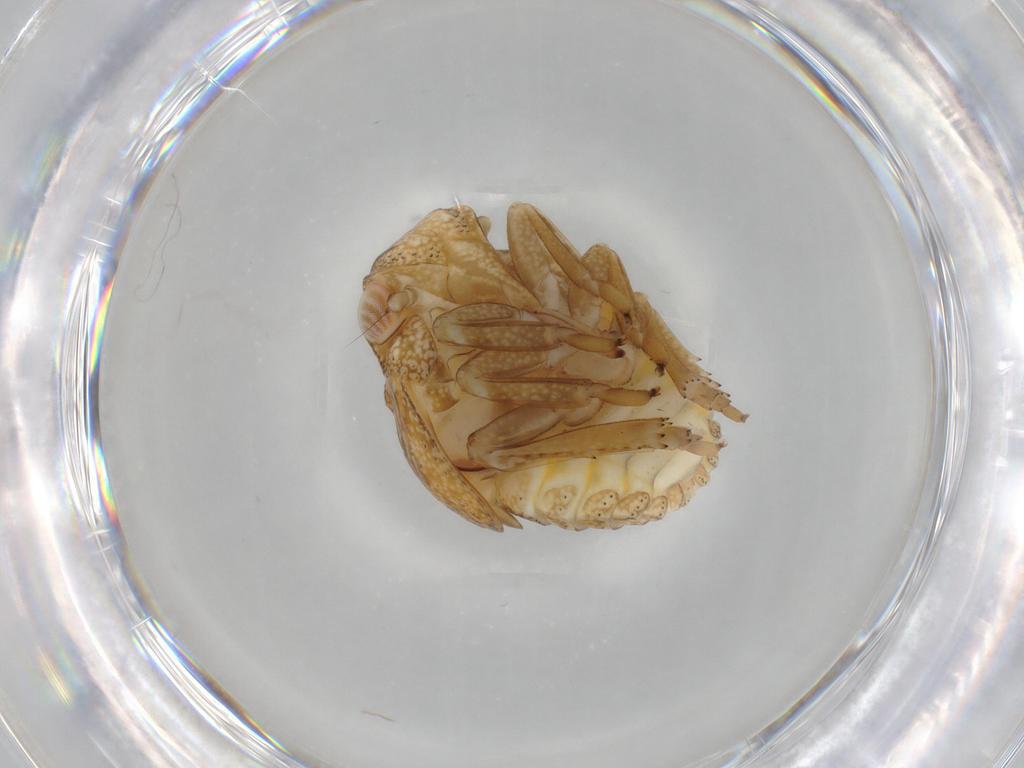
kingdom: Animalia
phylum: Arthropoda
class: Insecta
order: Hemiptera
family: Acanaloniidae
